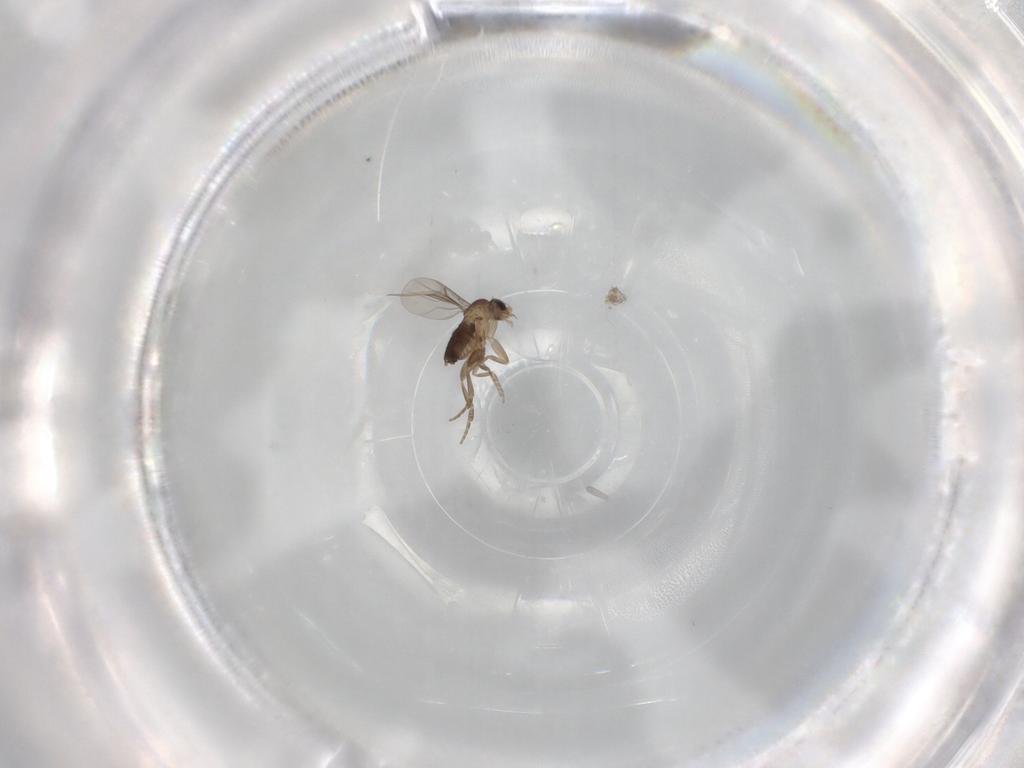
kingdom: Animalia
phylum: Arthropoda
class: Insecta
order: Diptera
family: Phoridae
